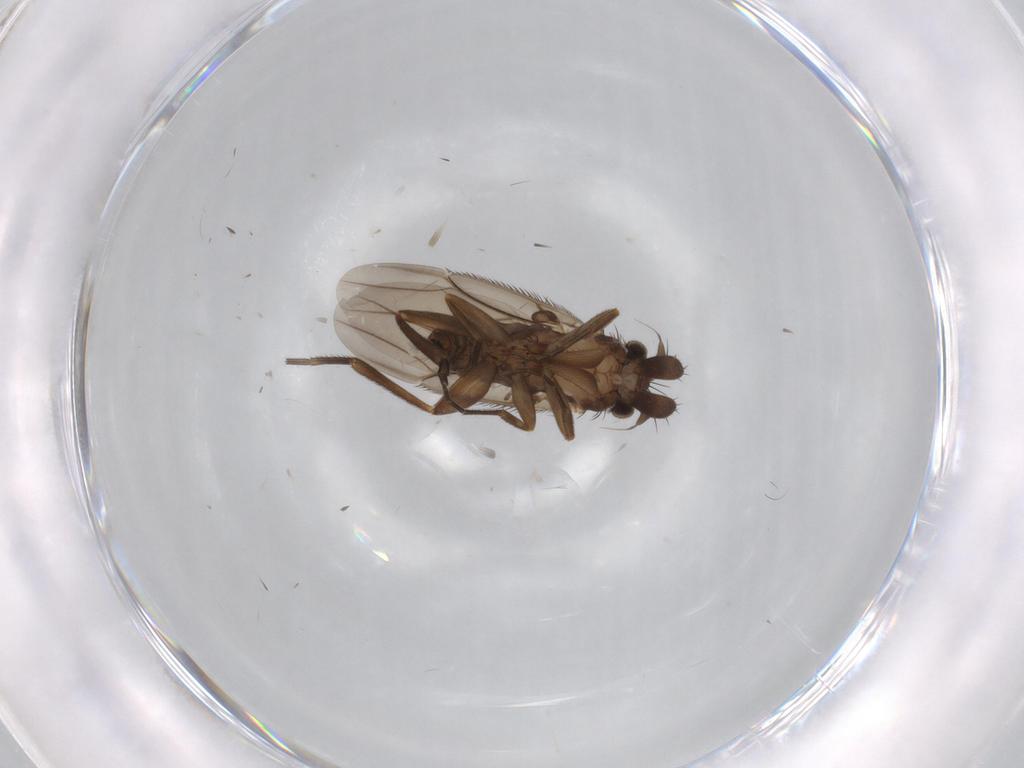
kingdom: Animalia
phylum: Arthropoda
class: Insecta
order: Diptera
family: Phoridae
